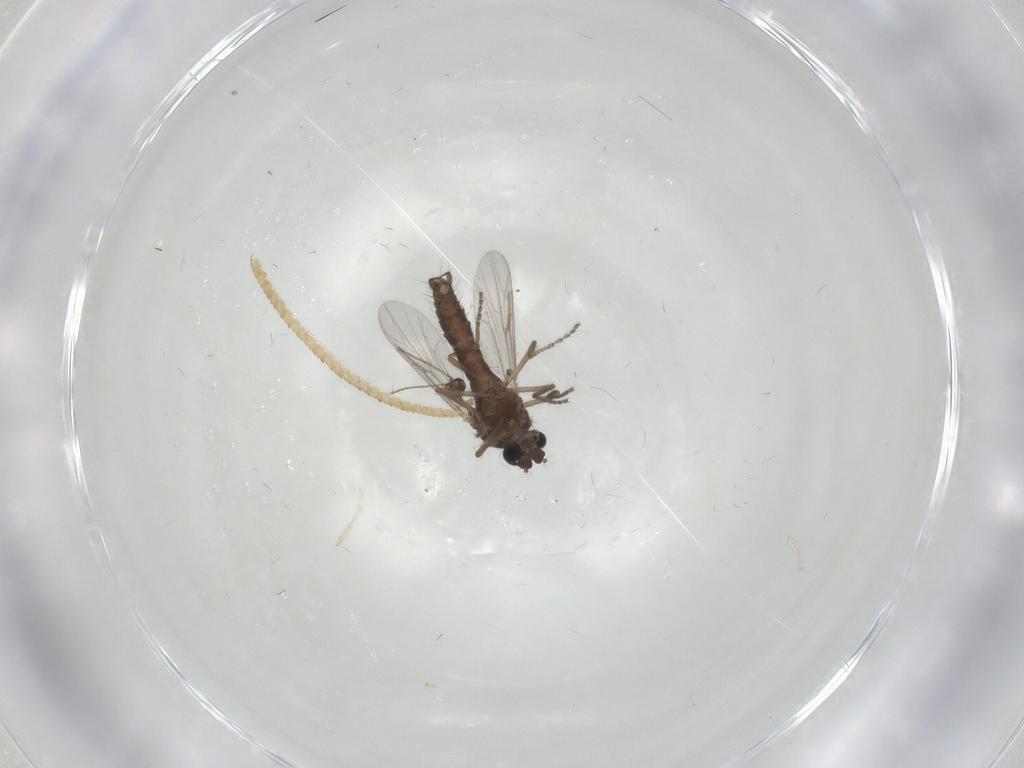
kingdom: Animalia
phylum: Arthropoda
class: Insecta
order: Diptera
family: Ceratopogonidae
